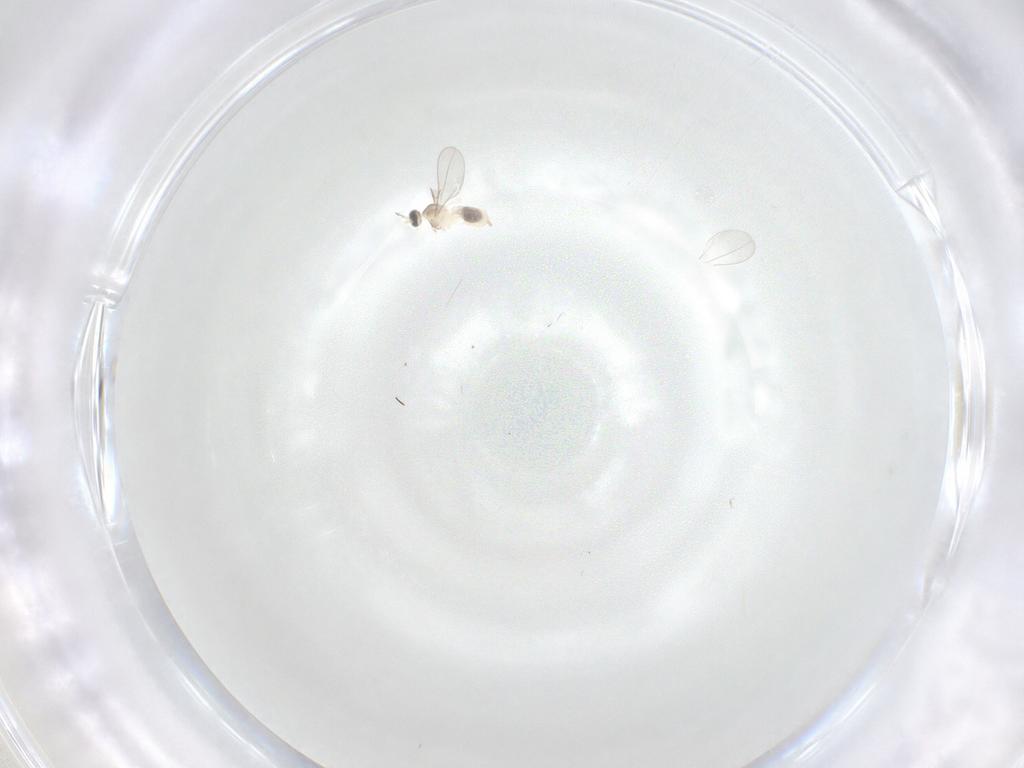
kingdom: Animalia
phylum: Arthropoda
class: Insecta
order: Diptera
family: Cecidomyiidae
